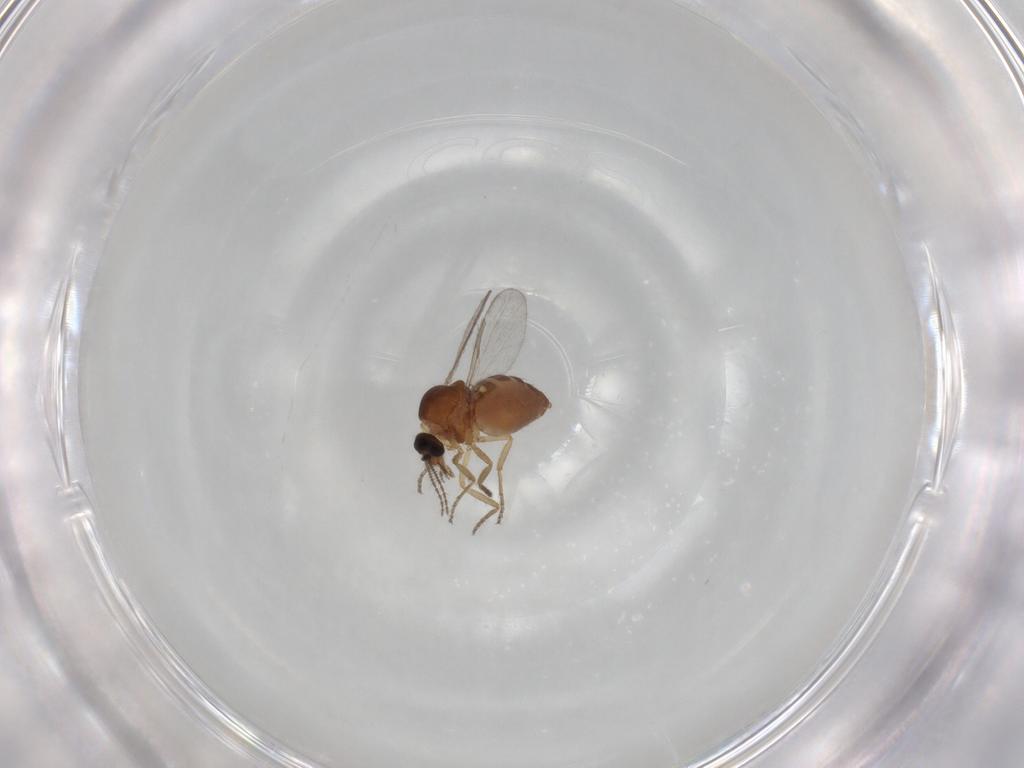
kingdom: Animalia
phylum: Arthropoda
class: Insecta
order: Diptera
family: Ceratopogonidae
